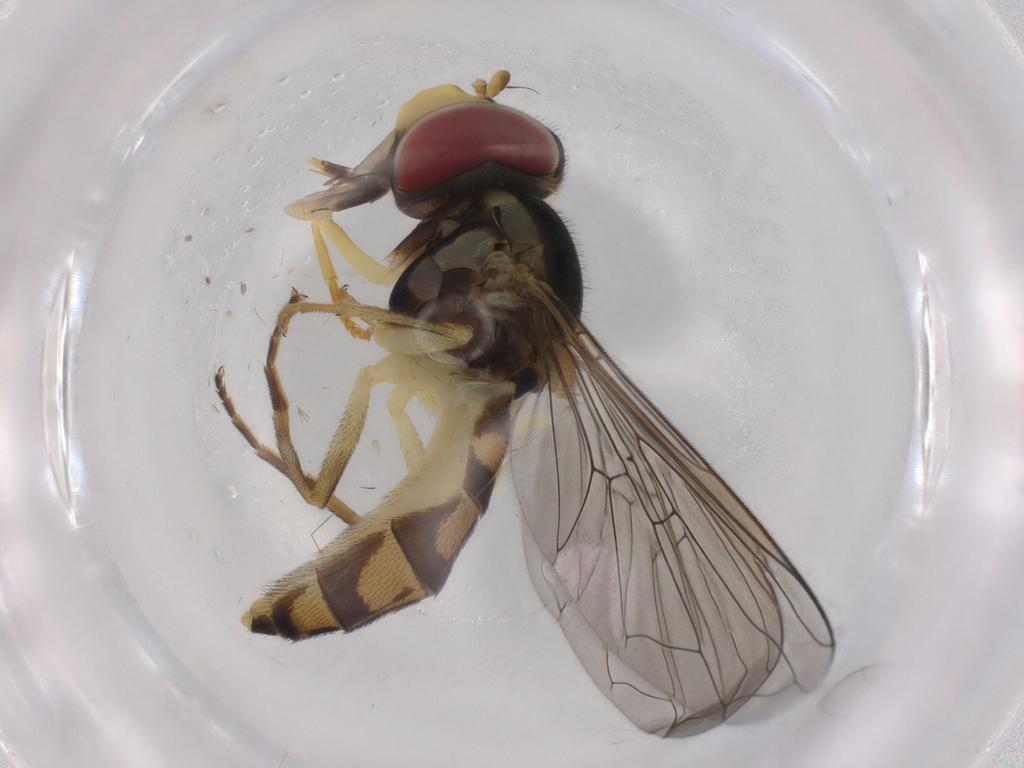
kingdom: Animalia
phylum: Arthropoda
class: Insecta
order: Diptera
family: Syrphidae
